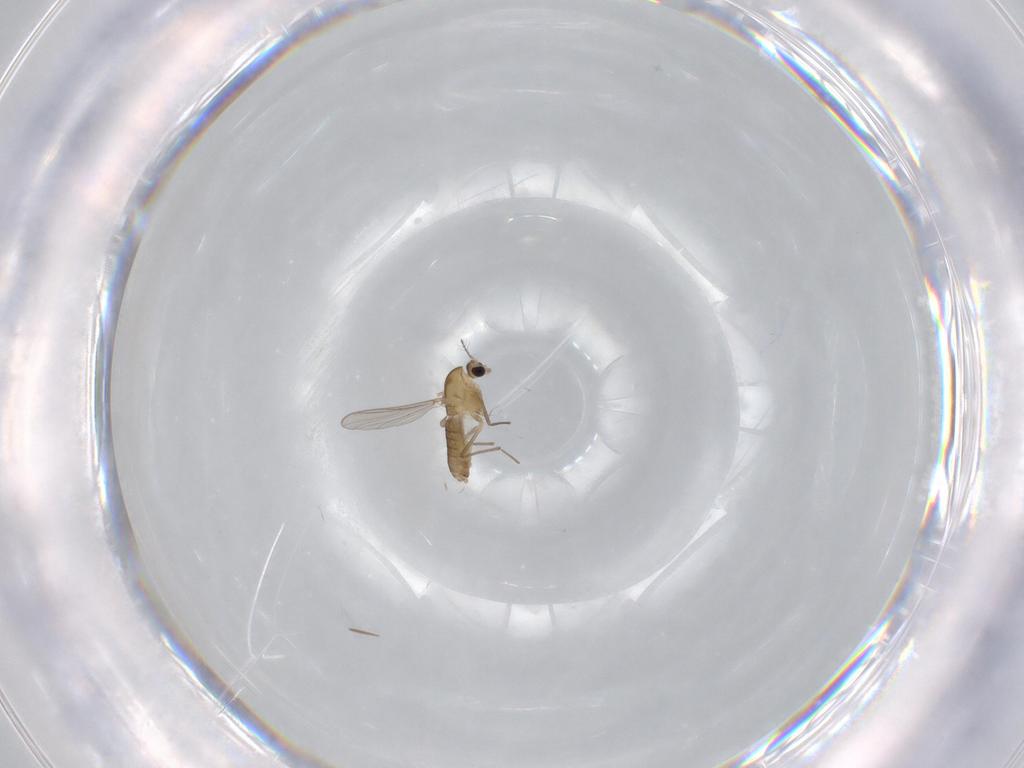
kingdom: Animalia
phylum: Arthropoda
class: Insecta
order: Diptera
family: Chironomidae
